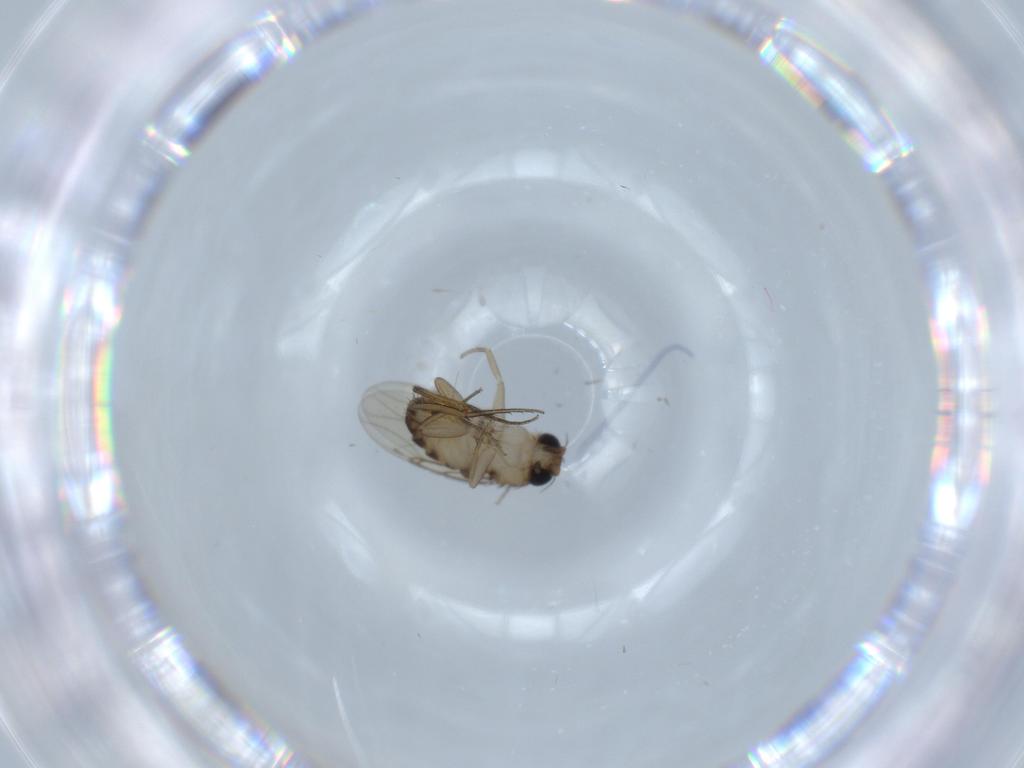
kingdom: Animalia
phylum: Arthropoda
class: Insecta
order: Diptera
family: Phoridae
